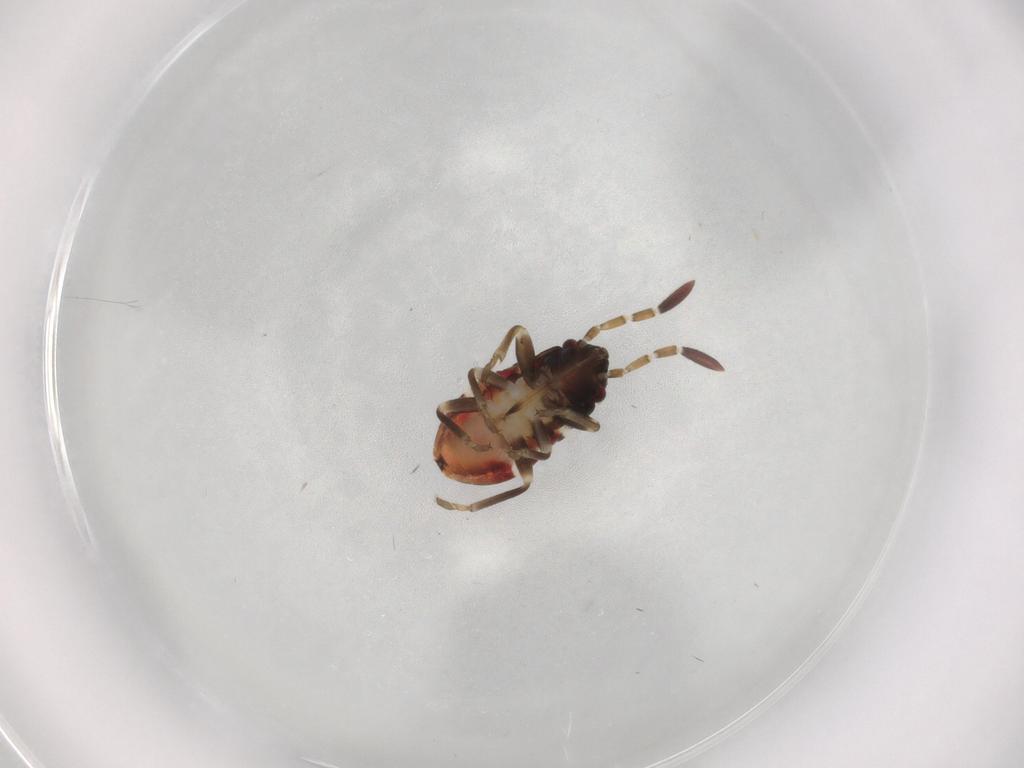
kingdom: Animalia
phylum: Arthropoda
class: Insecta
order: Hemiptera
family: Rhyparochromidae
